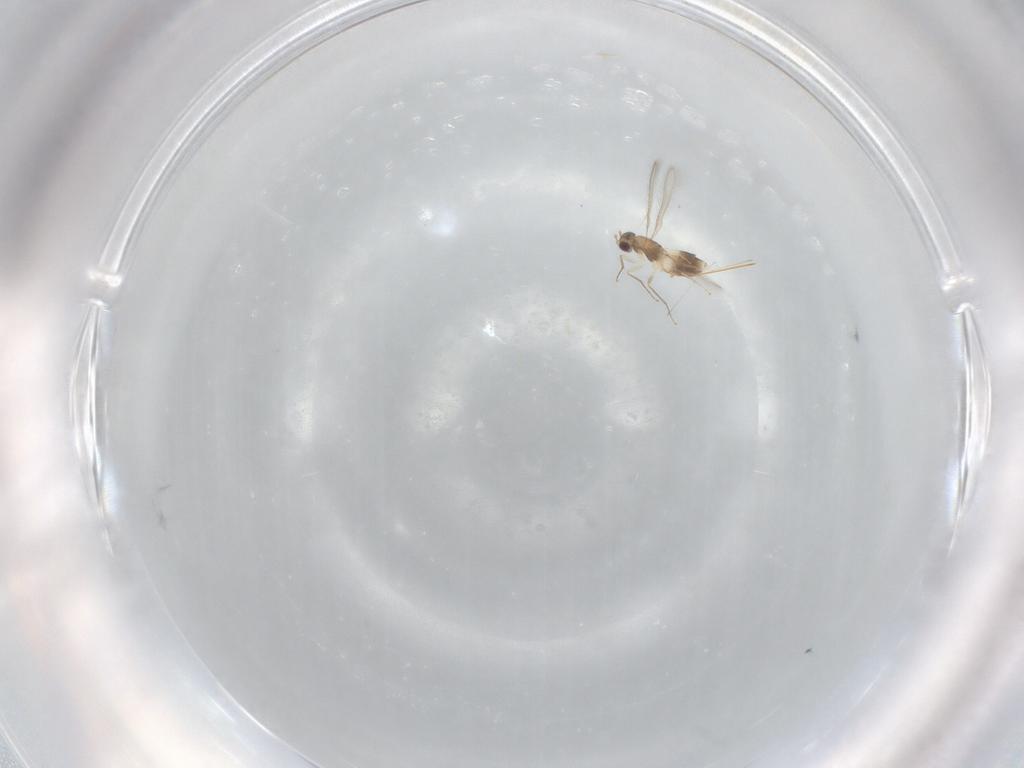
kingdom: Animalia
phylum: Arthropoda
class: Insecta
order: Hymenoptera
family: Mymaridae
